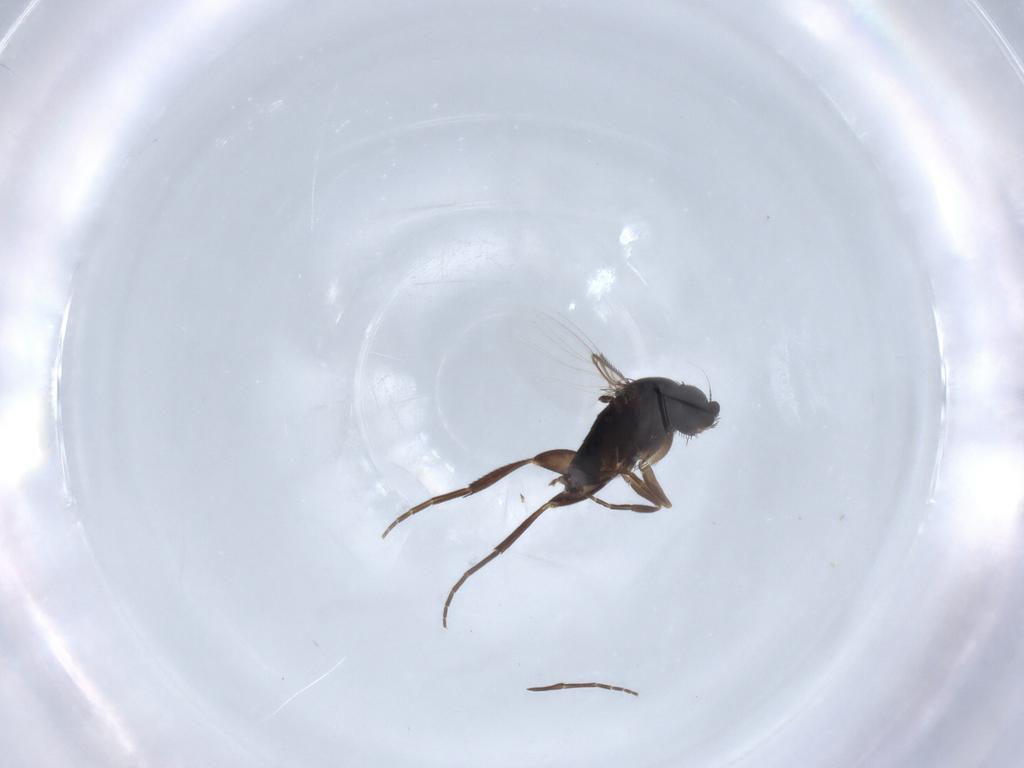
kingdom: Animalia
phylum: Arthropoda
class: Insecta
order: Diptera
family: Phoridae
